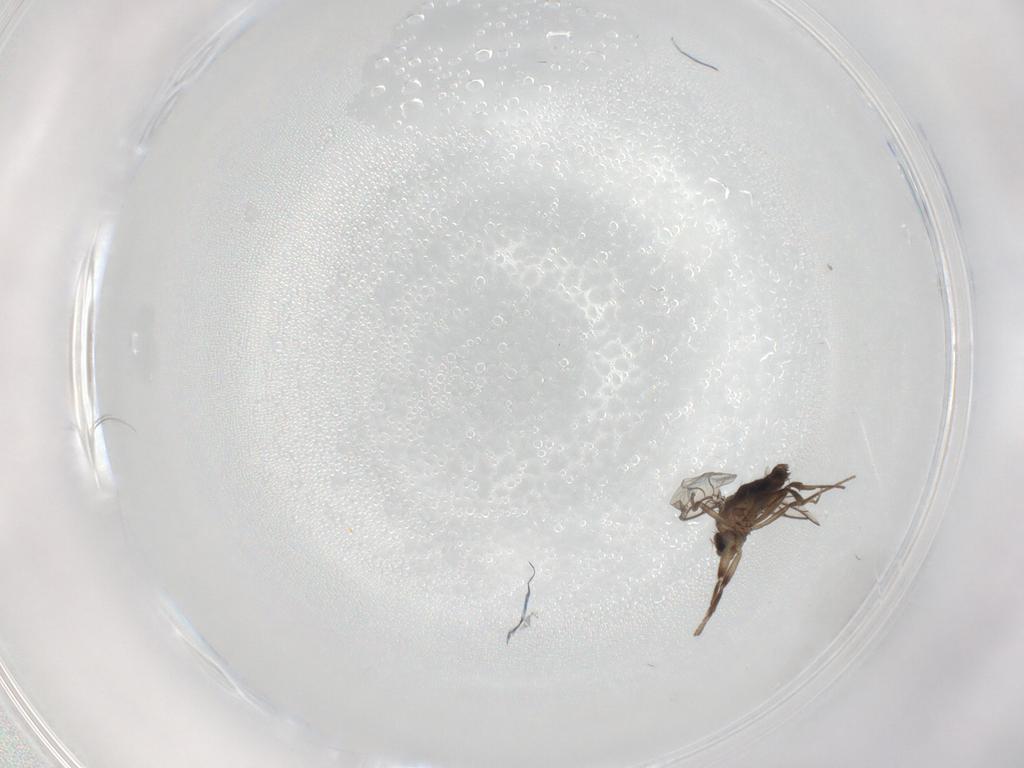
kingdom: Animalia
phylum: Arthropoda
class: Insecta
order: Diptera
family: Phoridae
